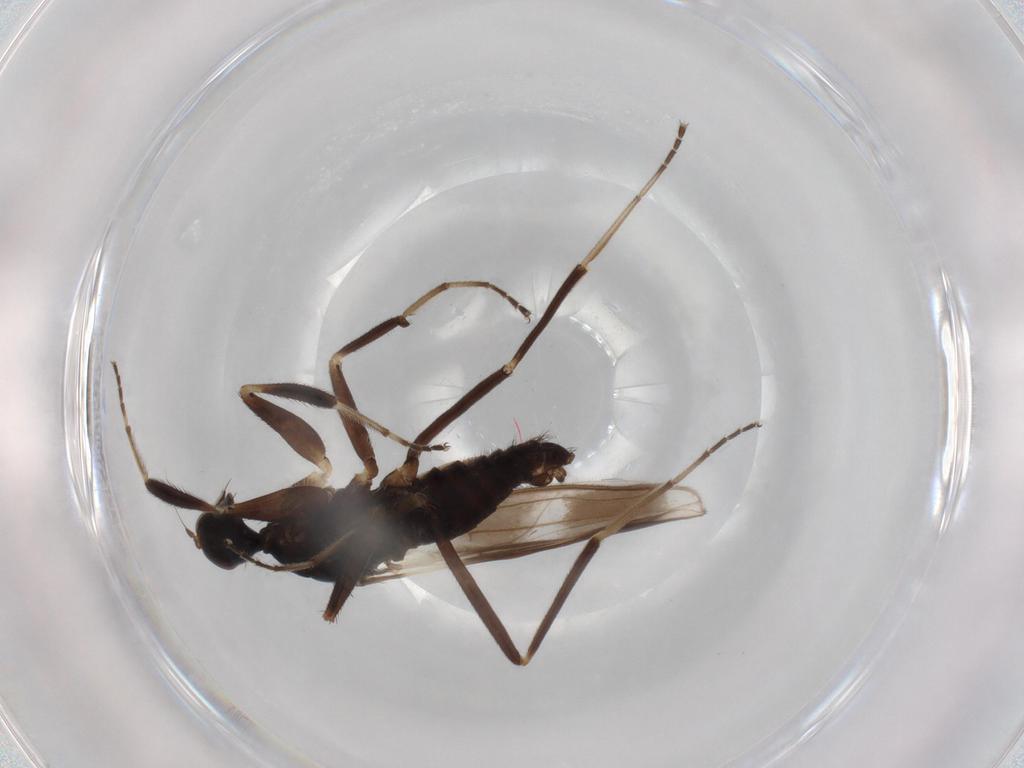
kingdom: Animalia
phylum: Arthropoda
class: Insecta
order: Diptera
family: Hybotidae
